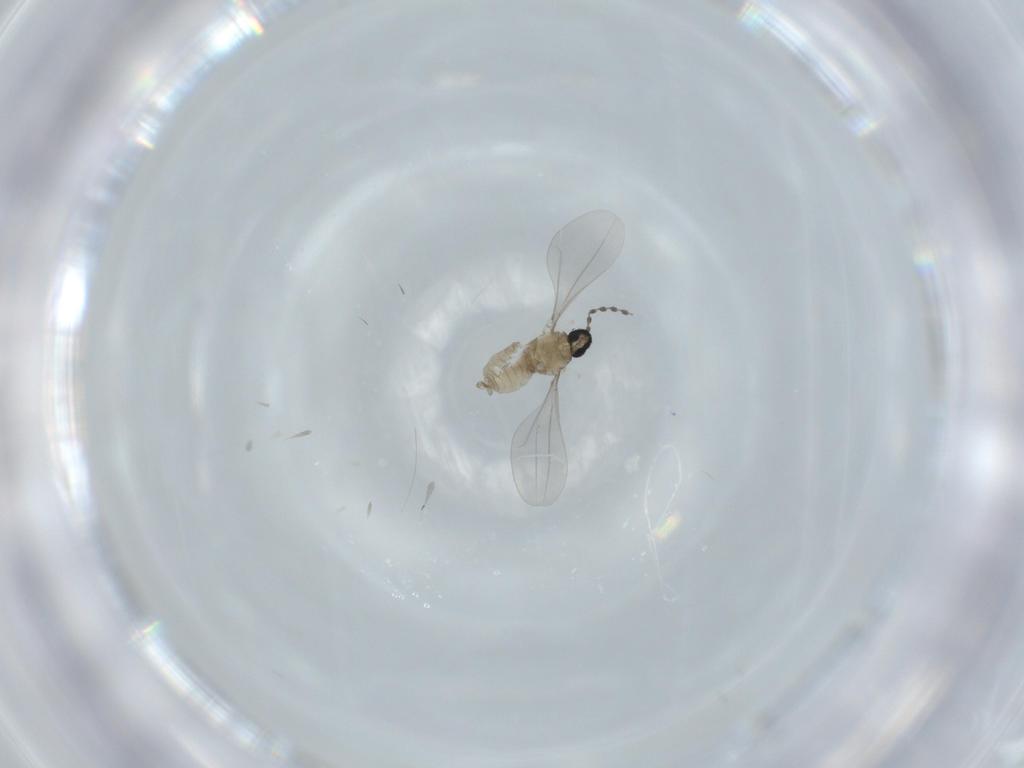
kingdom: Animalia
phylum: Arthropoda
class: Insecta
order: Diptera
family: Cecidomyiidae
